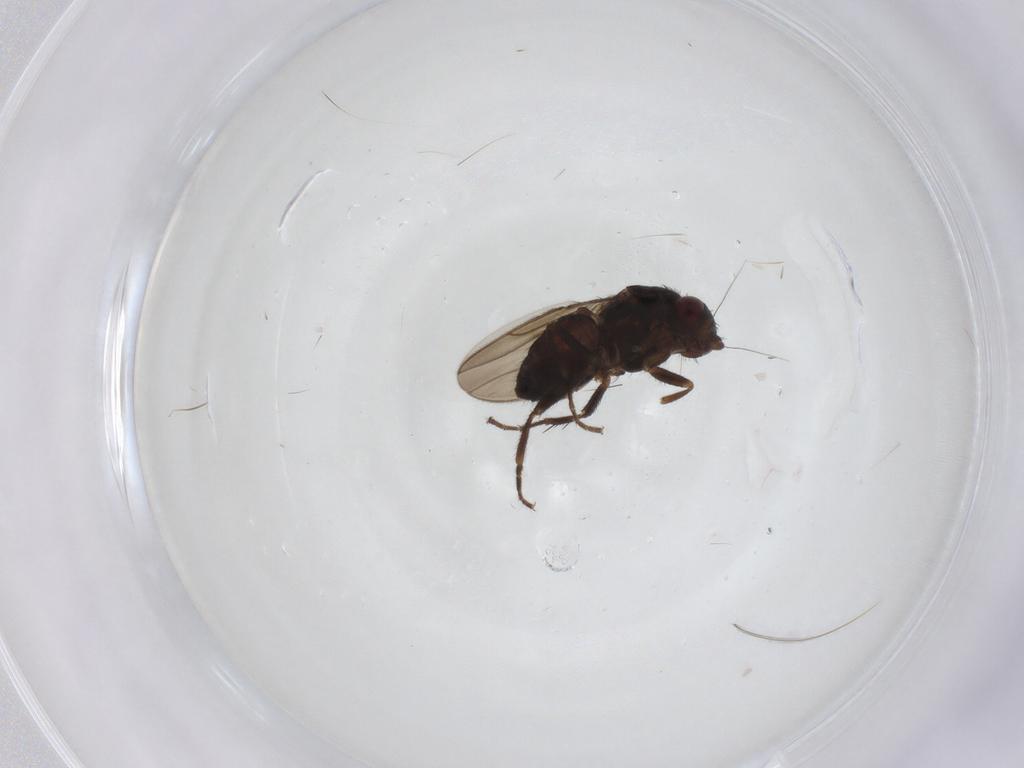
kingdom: Animalia
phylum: Arthropoda
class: Insecta
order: Diptera
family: Sphaeroceridae
